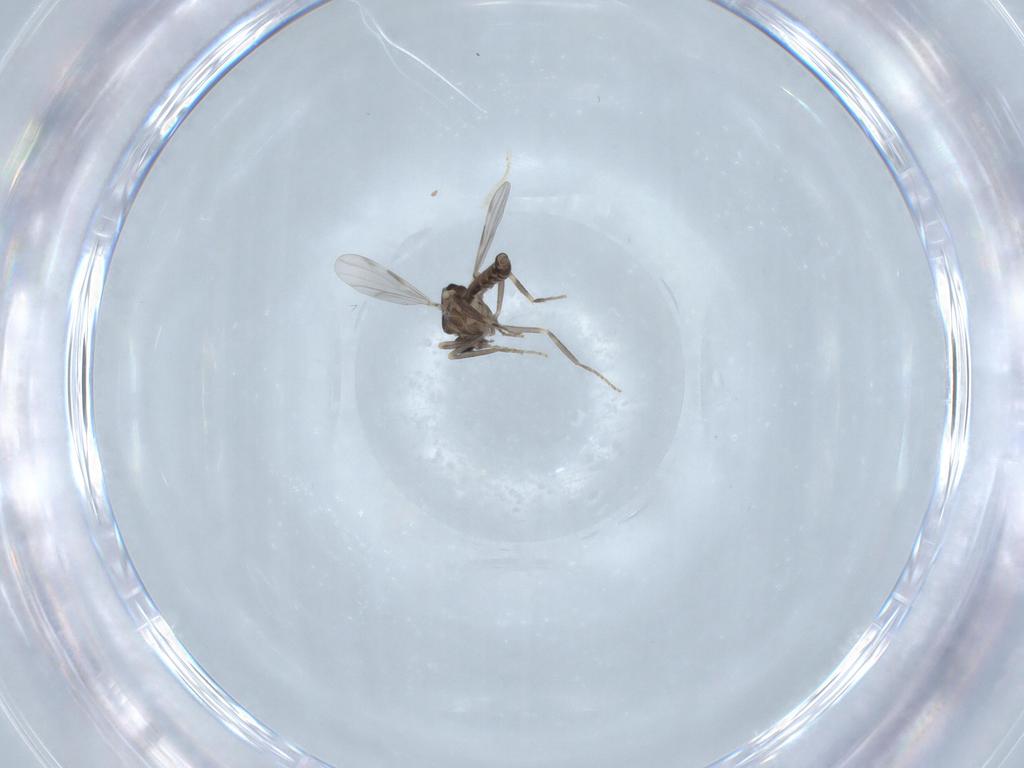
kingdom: Animalia
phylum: Arthropoda
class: Insecta
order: Diptera
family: Ceratopogonidae
